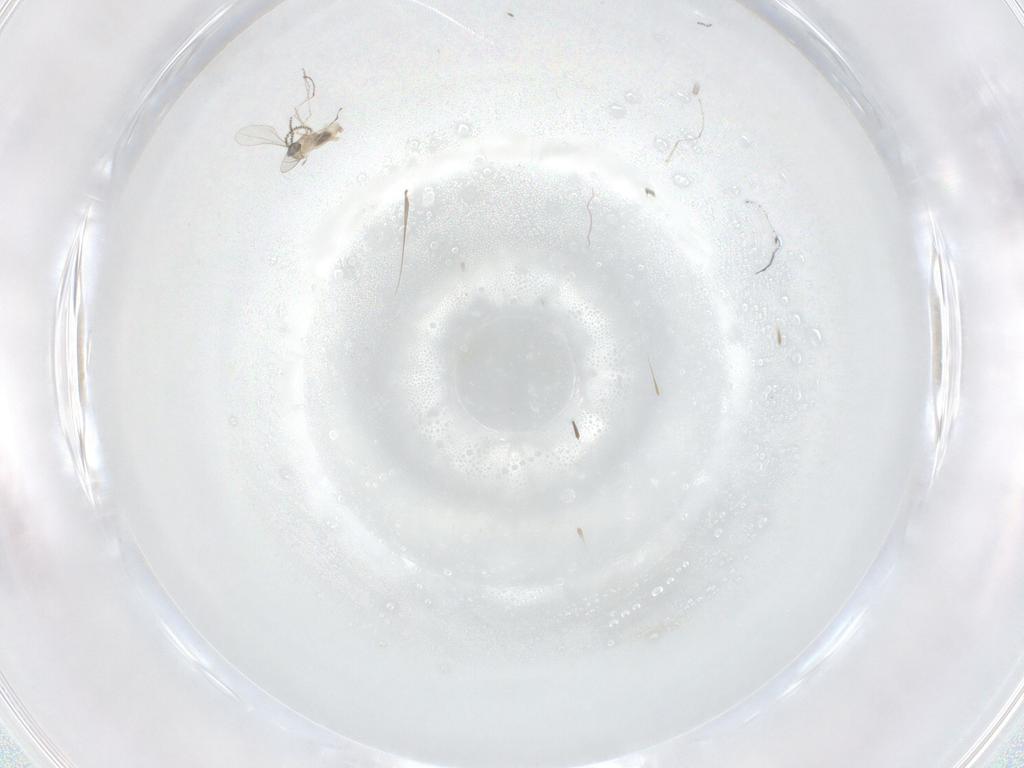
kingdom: Animalia
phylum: Arthropoda
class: Insecta
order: Diptera
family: Cecidomyiidae
